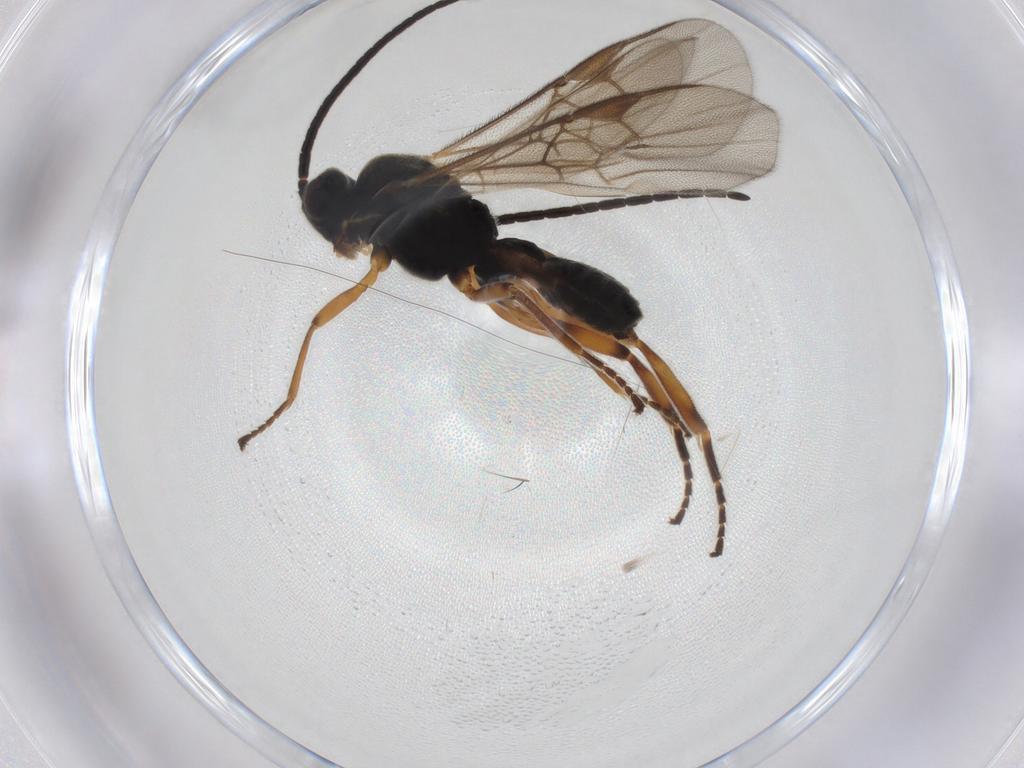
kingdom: Animalia
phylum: Arthropoda
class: Insecta
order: Hymenoptera
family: Braconidae
